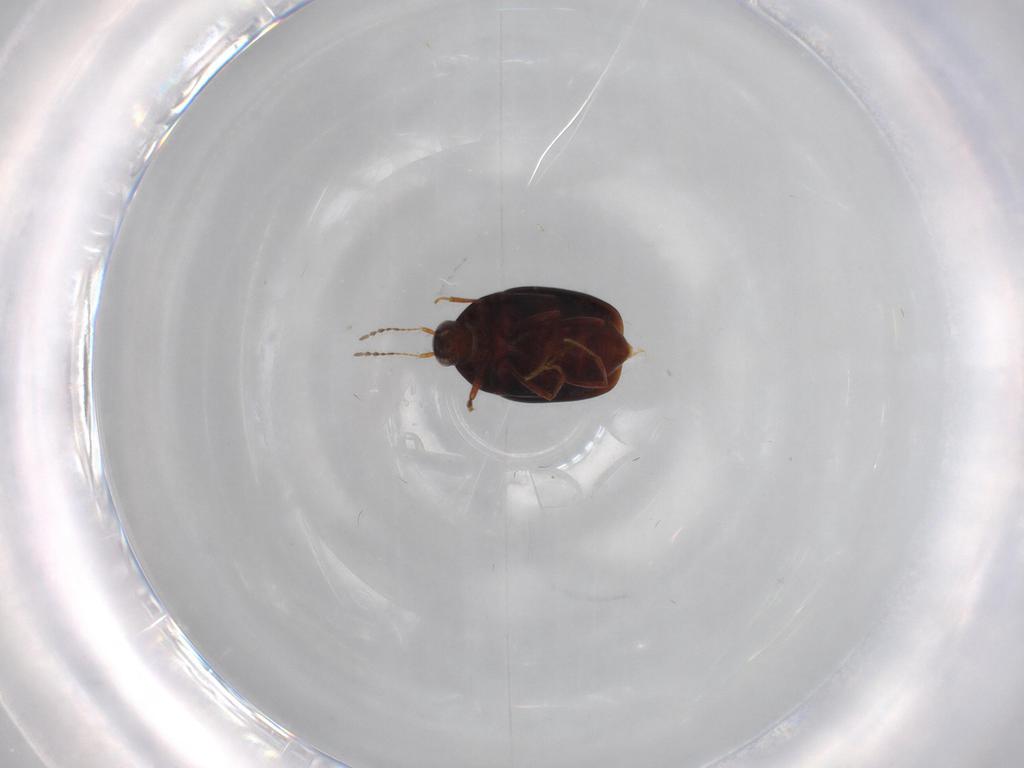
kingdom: Animalia
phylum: Arthropoda
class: Insecta
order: Coleoptera
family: Staphylinidae
